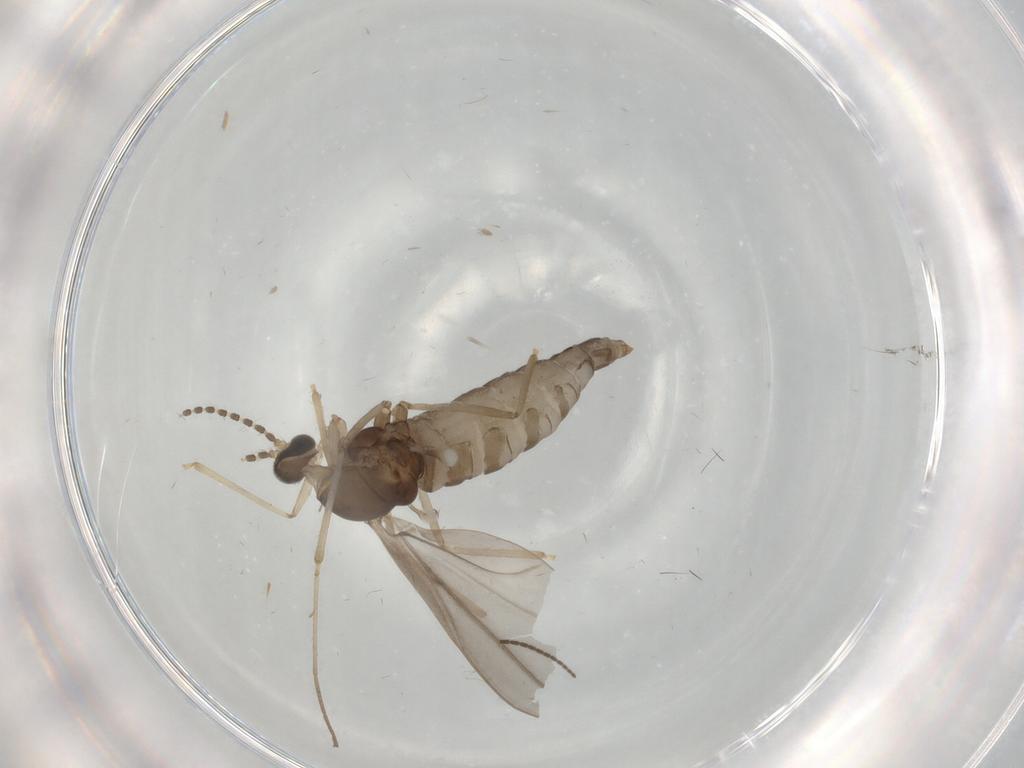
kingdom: Animalia
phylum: Arthropoda
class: Insecta
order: Diptera
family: Cecidomyiidae
